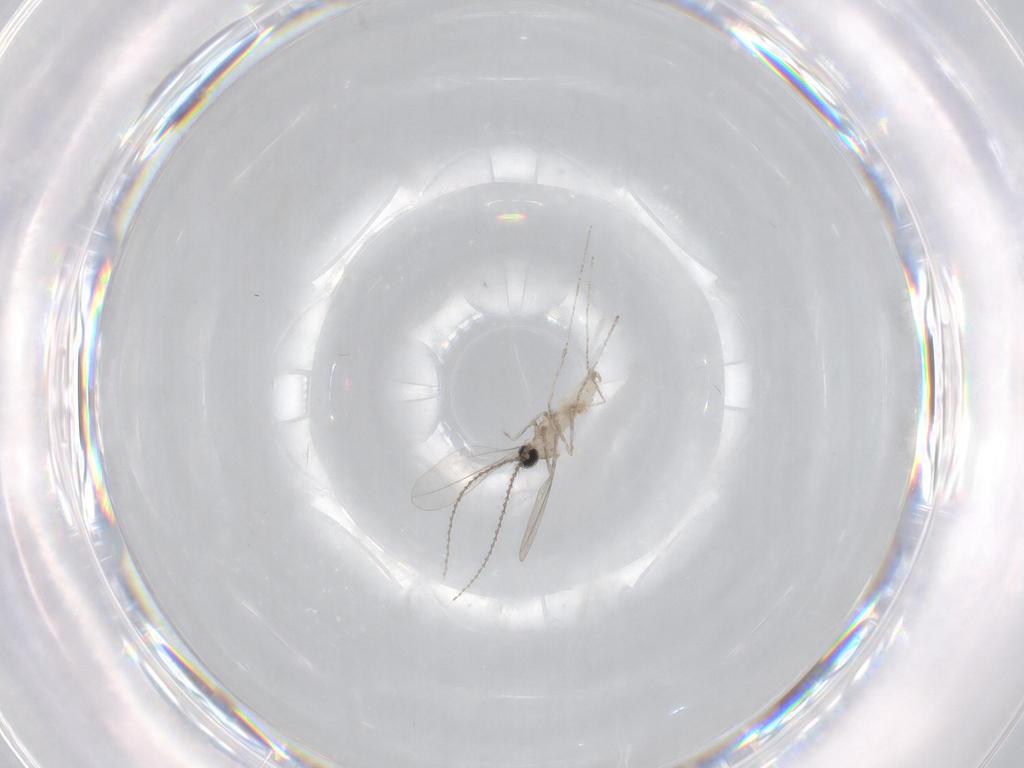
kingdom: Animalia
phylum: Arthropoda
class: Insecta
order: Diptera
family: Cecidomyiidae
